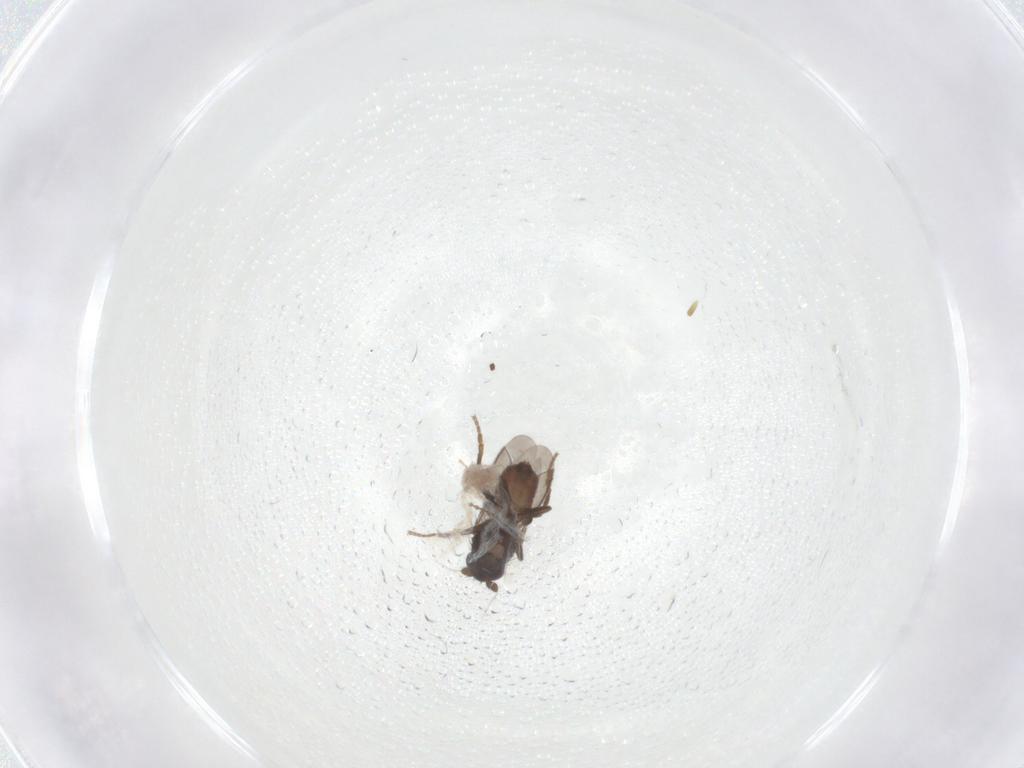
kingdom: Animalia
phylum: Arthropoda
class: Insecta
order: Diptera
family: Sphaeroceridae
